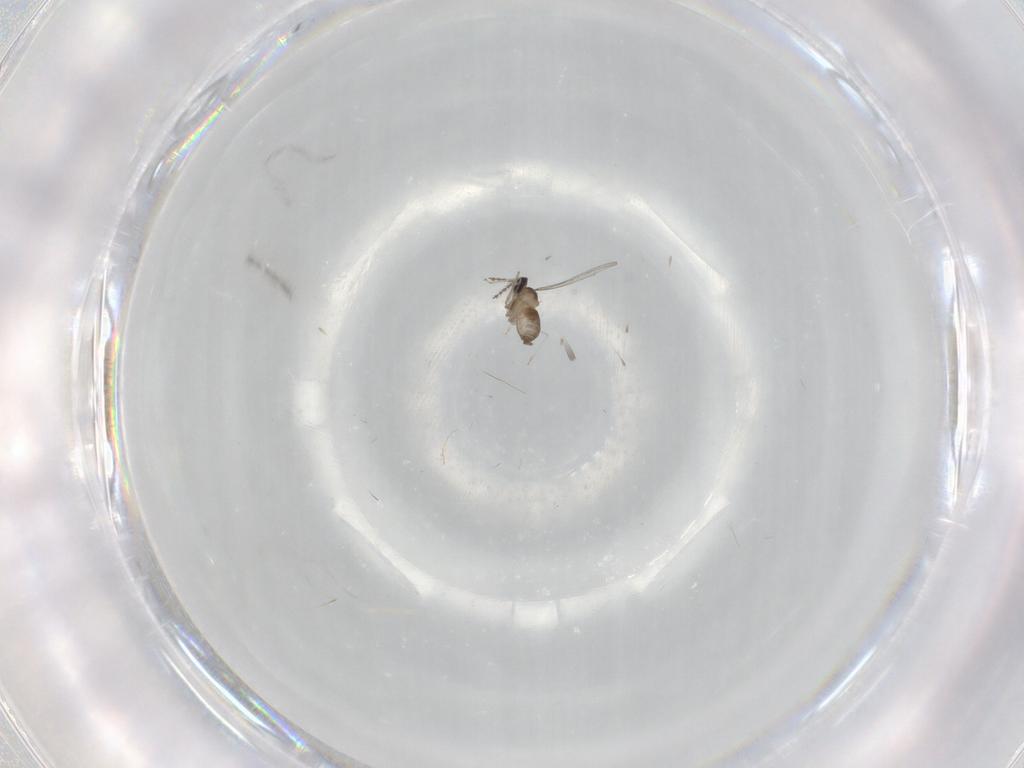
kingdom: Animalia
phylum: Arthropoda
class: Insecta
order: Diptera
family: Cecidomyiidae
